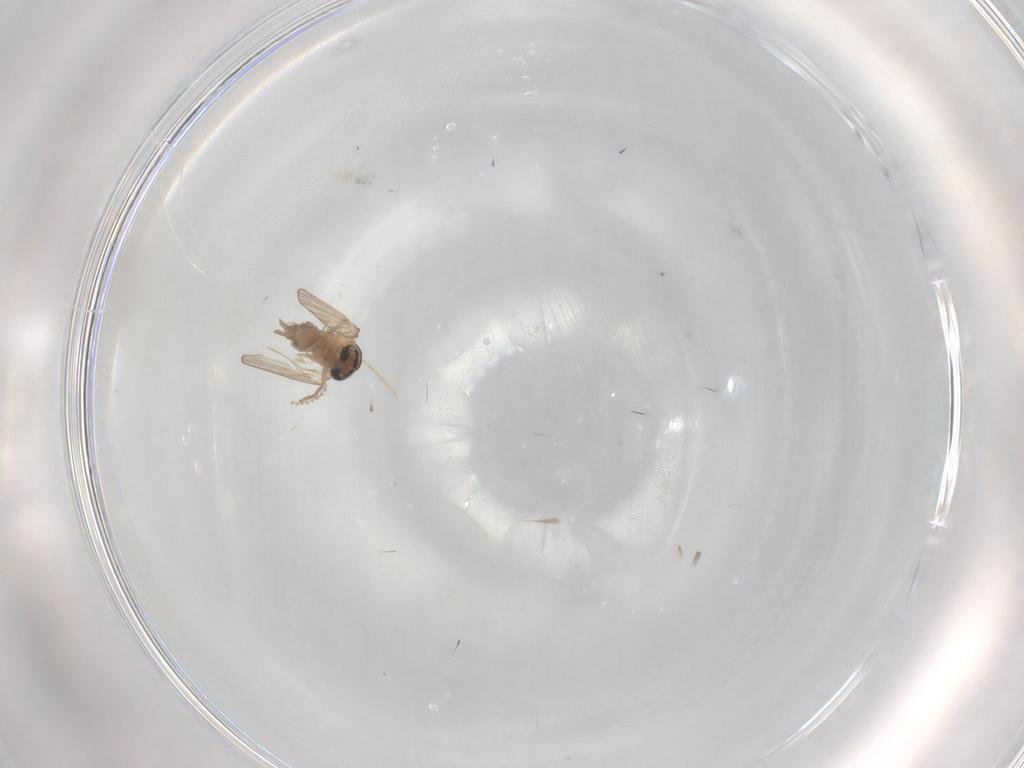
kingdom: Animalia
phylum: Arthropoda
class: Insecta
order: Diptera
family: Psychodidae
